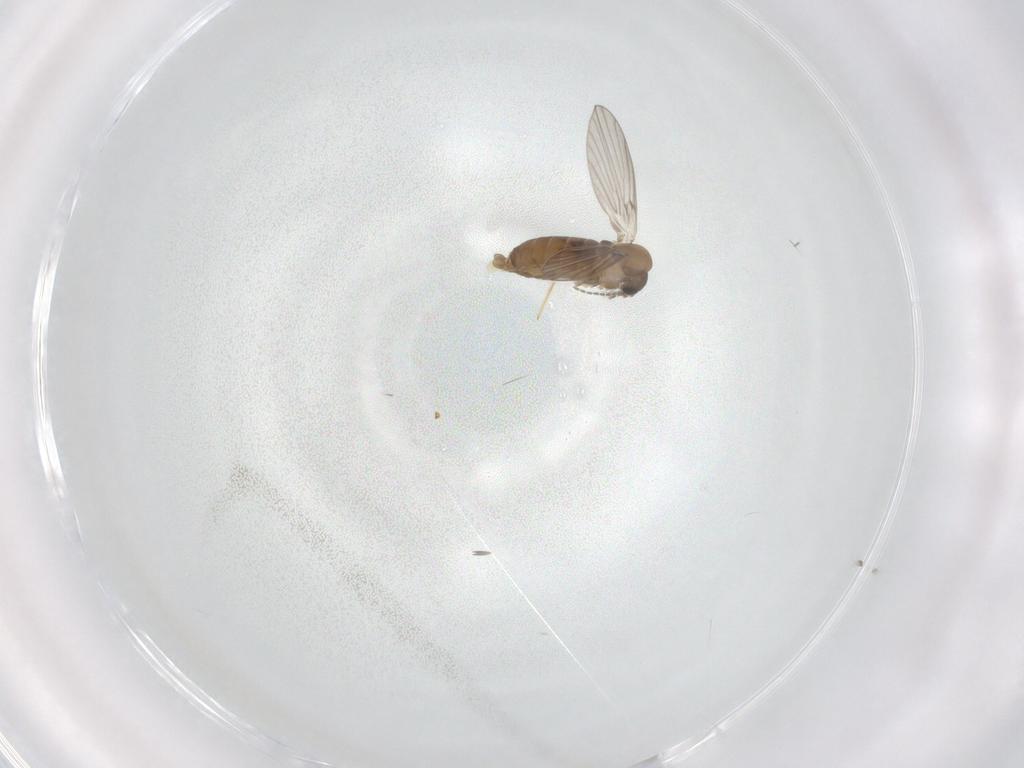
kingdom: Animalia
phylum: Arthropoda
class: Insecta
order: Diptera
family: Psychodidae
